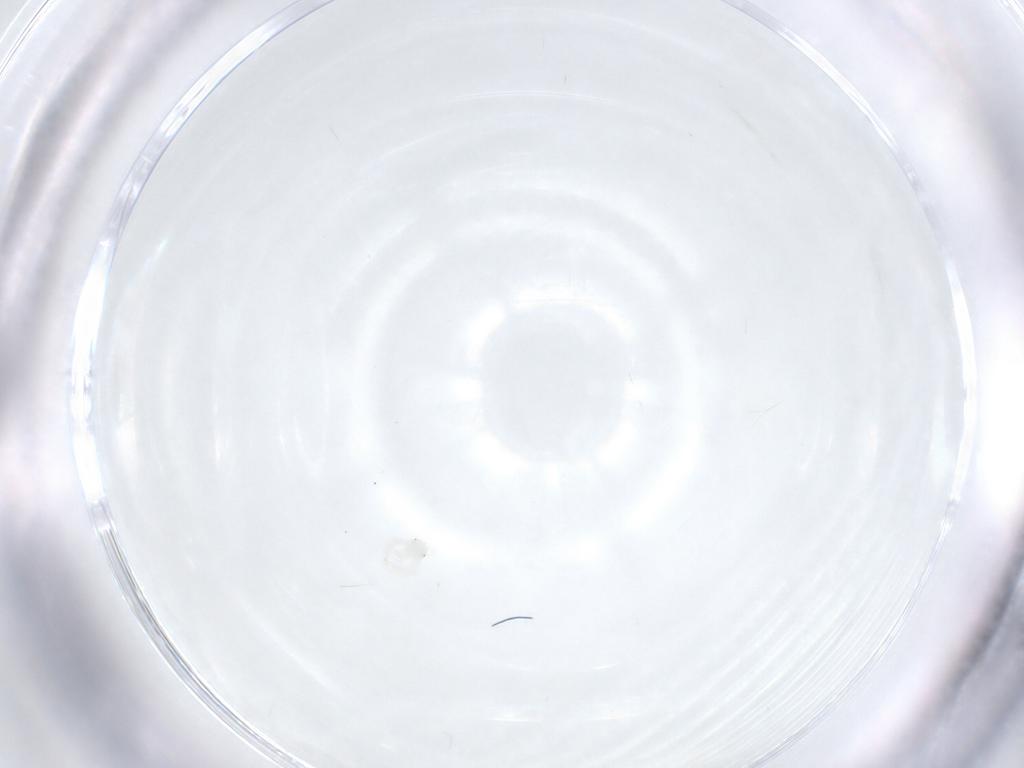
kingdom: Animalia
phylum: Arthropoda
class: Arachnida
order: Trombidiformes
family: Anystidae
